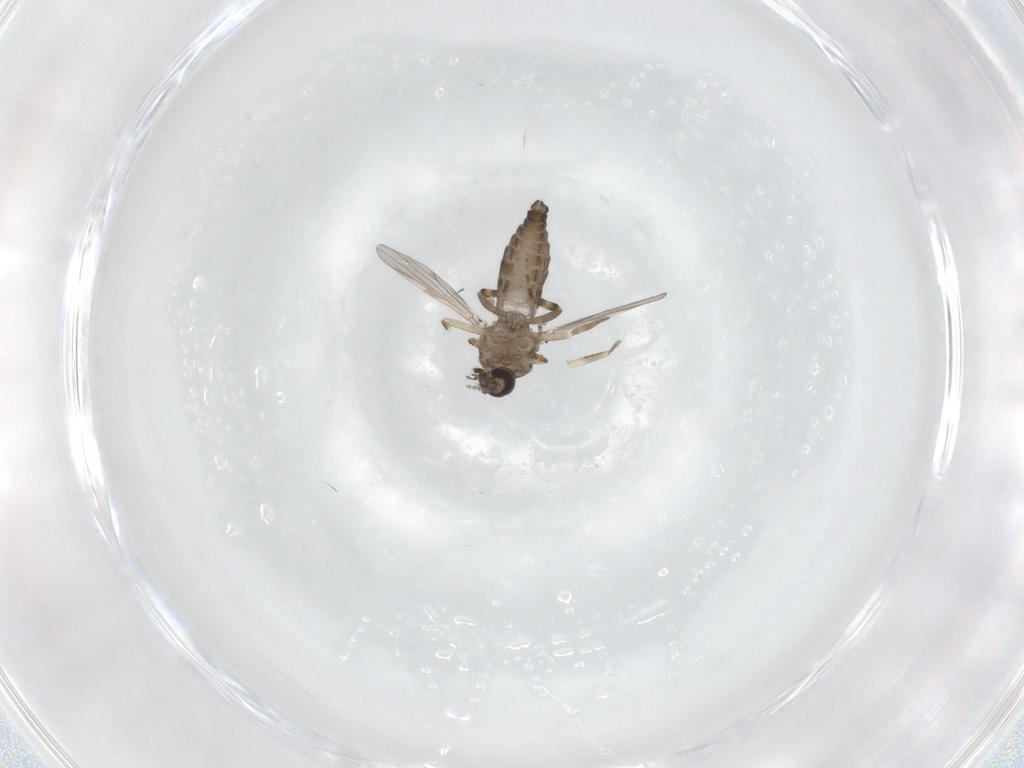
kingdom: Animalia
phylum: Arthropoda
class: Insecta
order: Diptera
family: Ceratopogonidae
